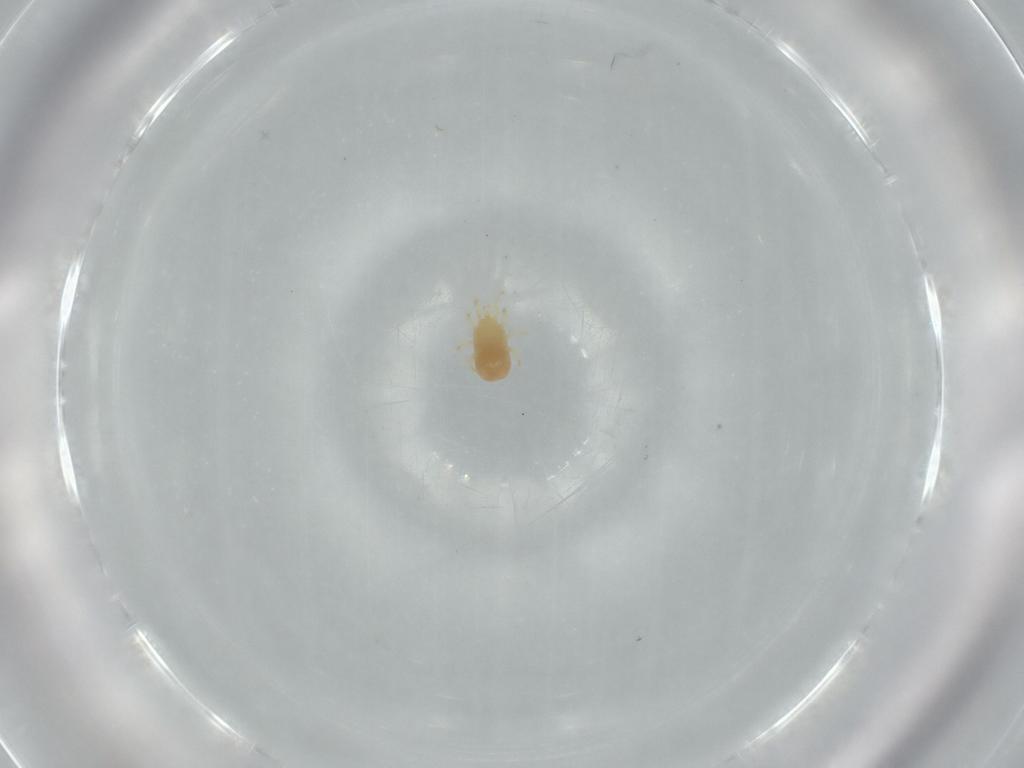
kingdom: Animalia
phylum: Arthropoda
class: Arachnida
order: Mesostigmata
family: Dermanyssidae
